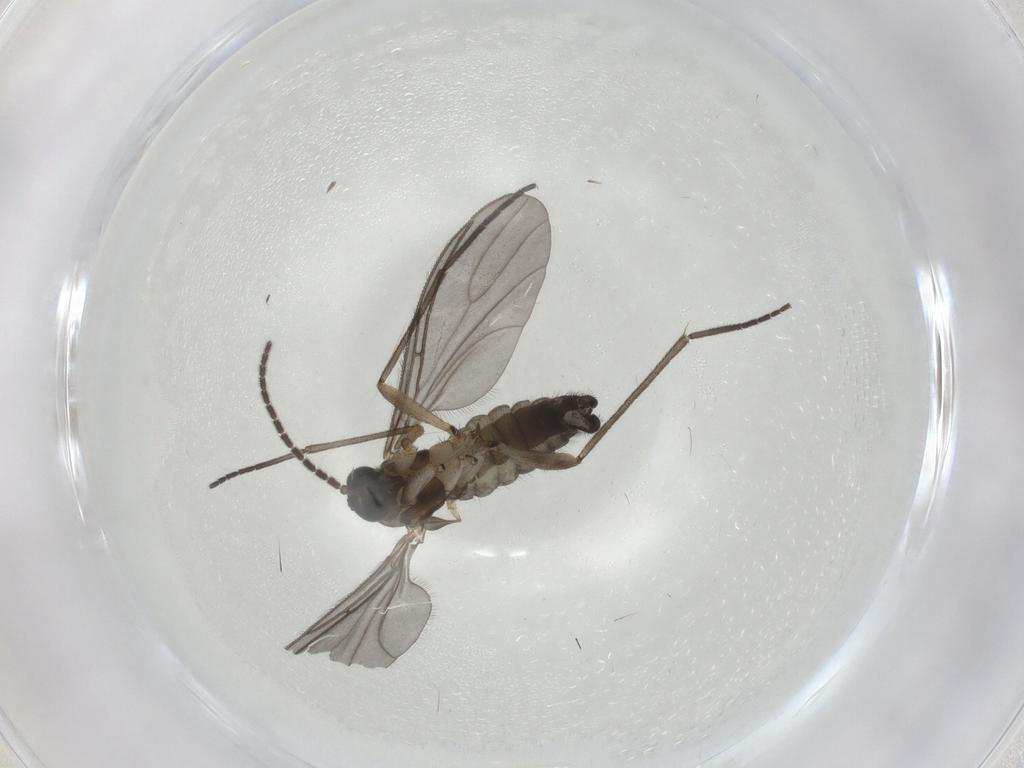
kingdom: Animalia
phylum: Arthropoda
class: Insecta
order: Diptera
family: Sciaridae
